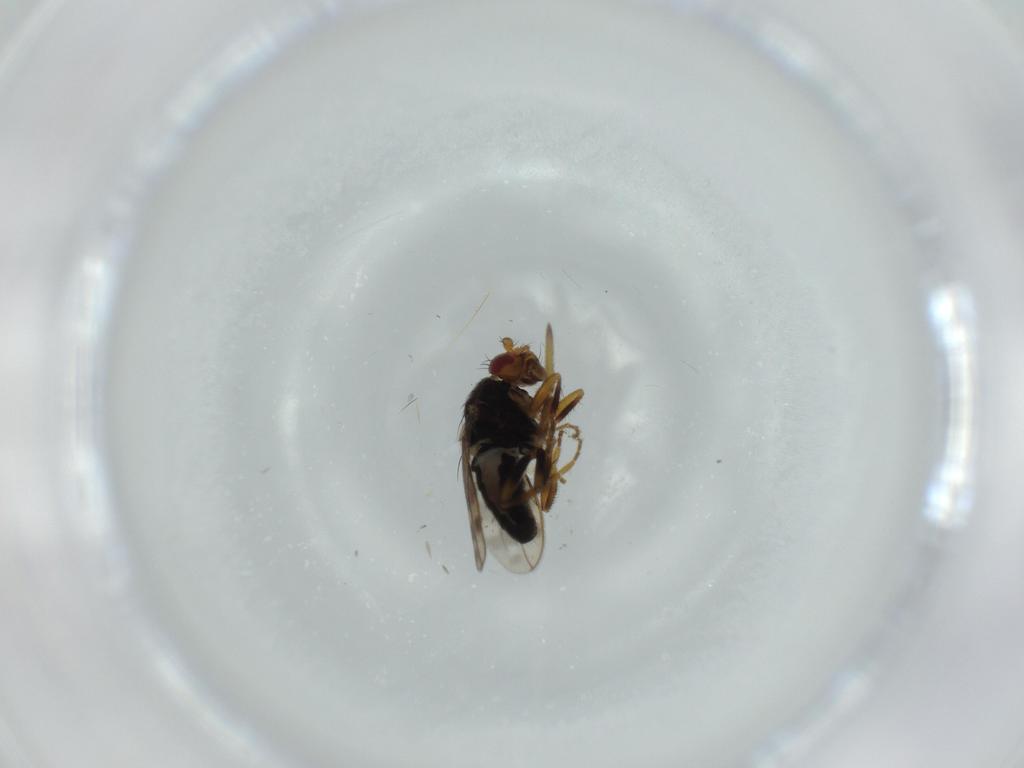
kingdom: Animalia
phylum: Arthropoda
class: Insecta
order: Diptera
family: Sphaeroceridae
